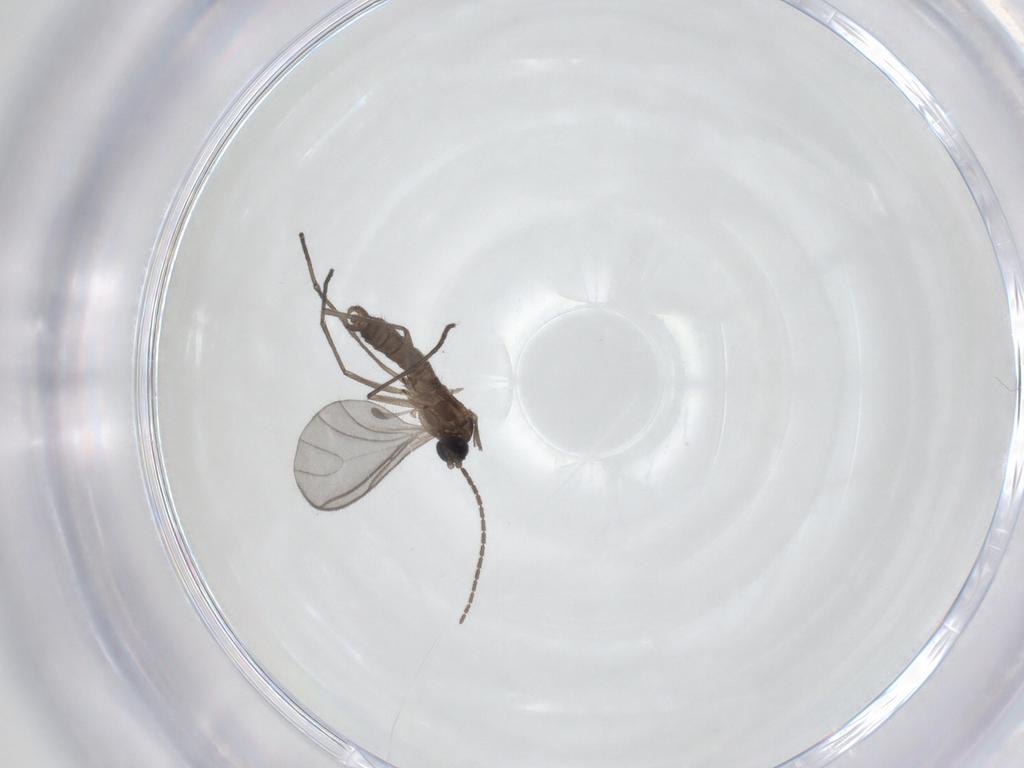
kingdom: Animalia
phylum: Arthropoda
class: Insecta
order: Diptera
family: Sciaridae
